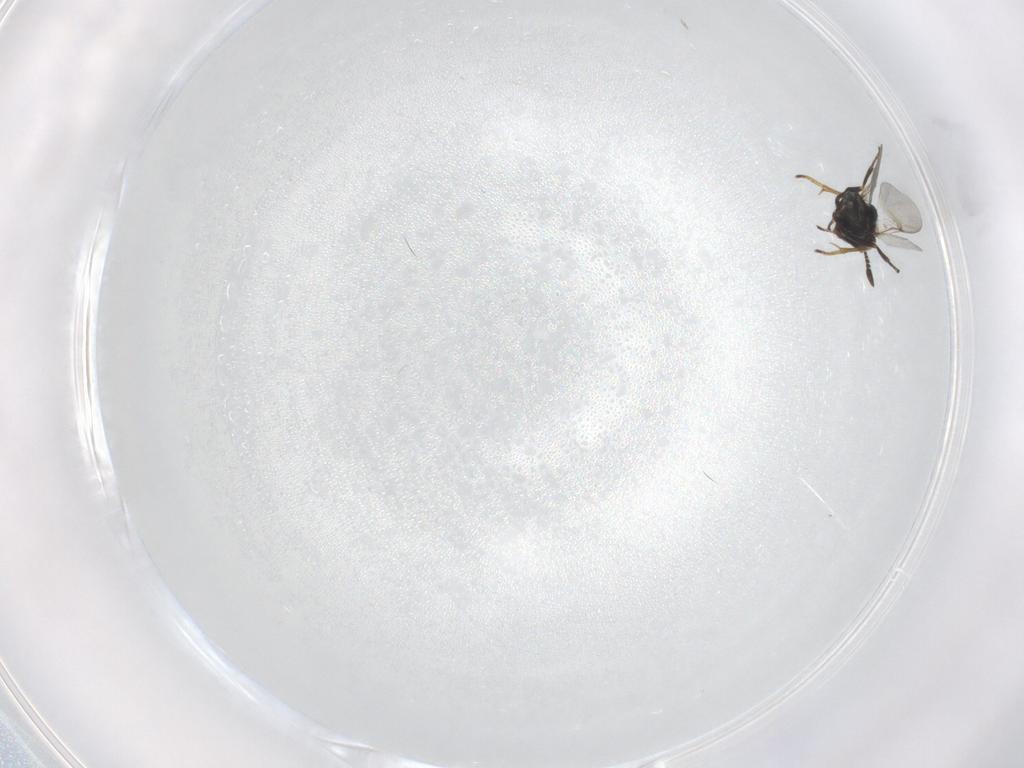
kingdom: Animalia
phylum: Arthropoda
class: Insecta
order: Hymenoptera
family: Encyrtidae
